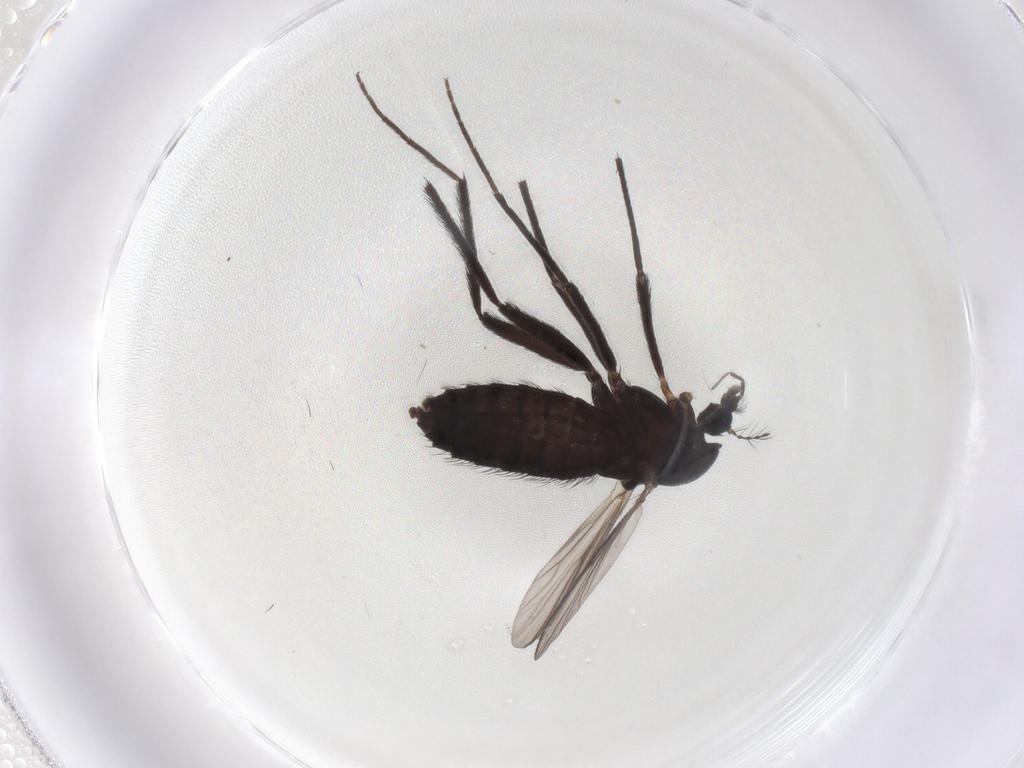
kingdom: Animalia
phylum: Arthropoda
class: Insecta
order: Diptera
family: Chironomidae
